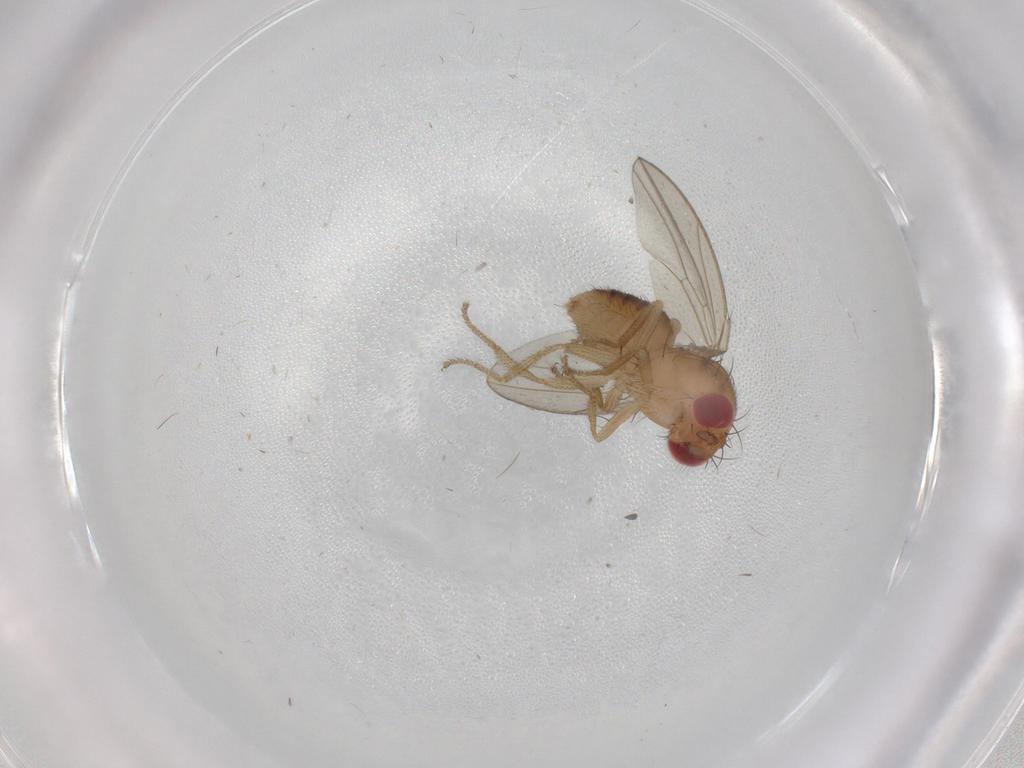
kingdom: Animalia
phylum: Arthropoda
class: Insecta
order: Diptera
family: Drosophilidae
